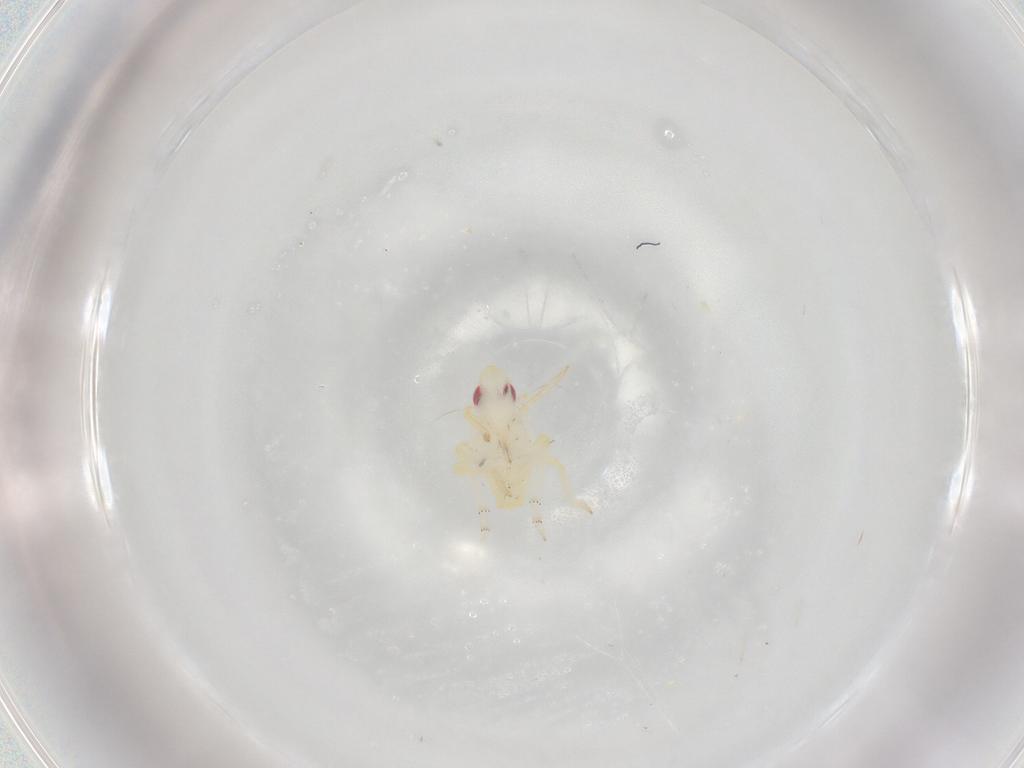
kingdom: Animalia
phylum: Arthropoda
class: Insecta
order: Hemiptera
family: Fulgoroidea_incertae_sedis
